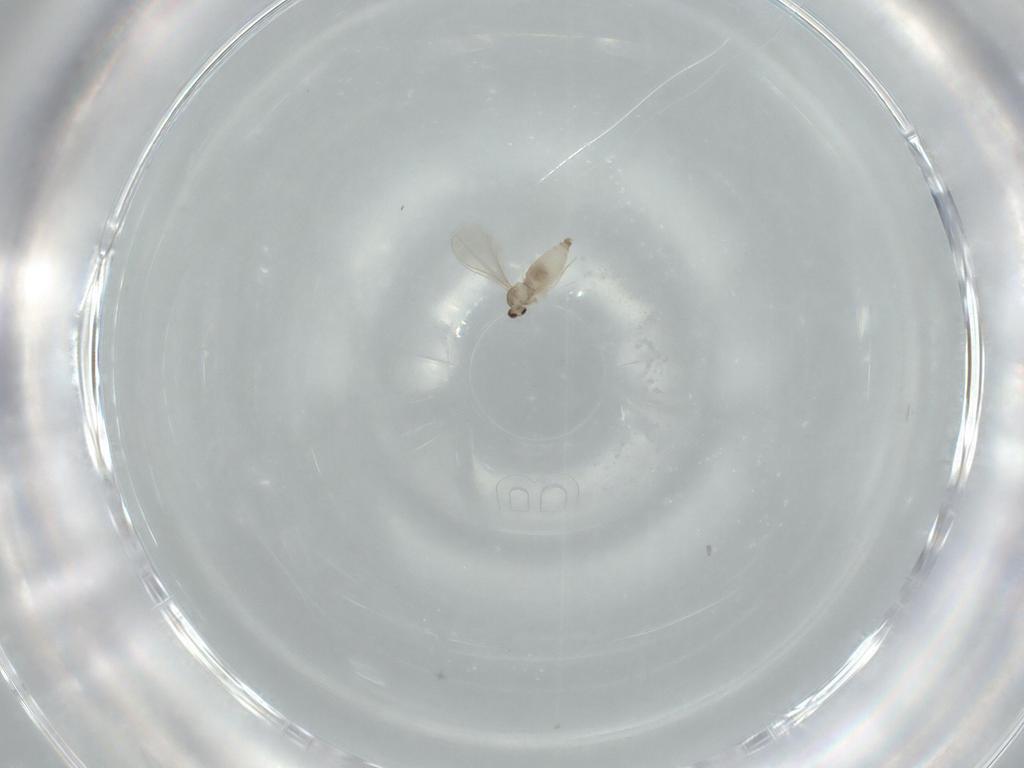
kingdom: Animalia
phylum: Arthropoda
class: Insecta
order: Diptera
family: Cecidomyiidae
